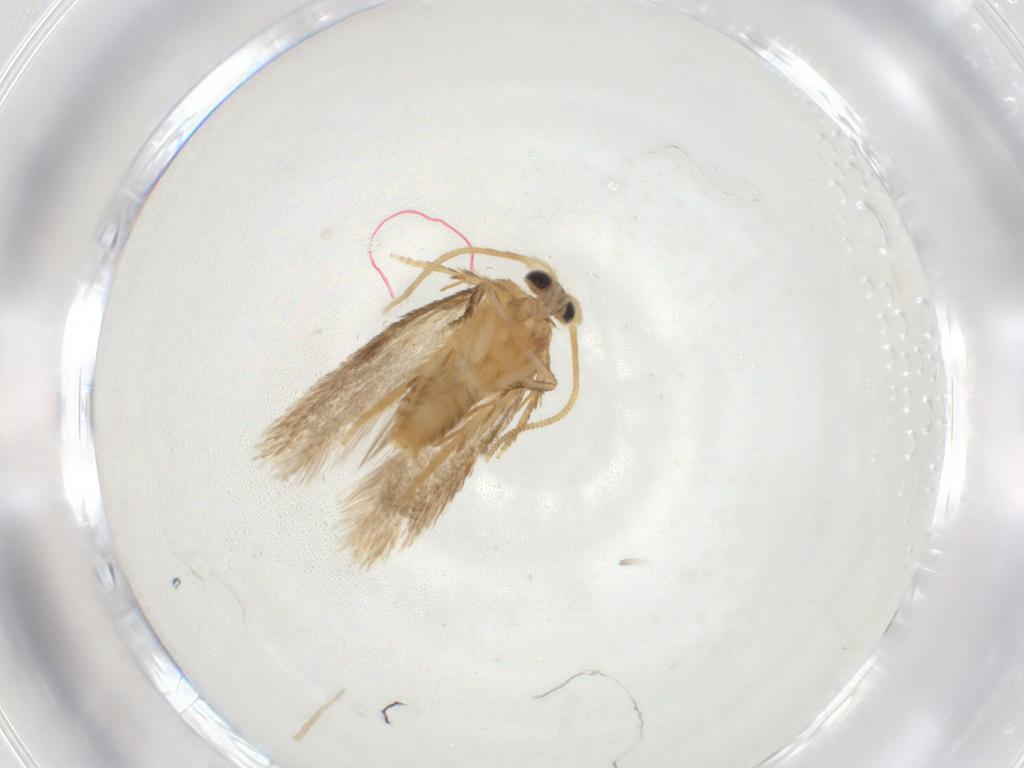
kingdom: Animalia
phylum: Arthropoda
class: Insecta
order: Lepidoptera
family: Nepticulidae
